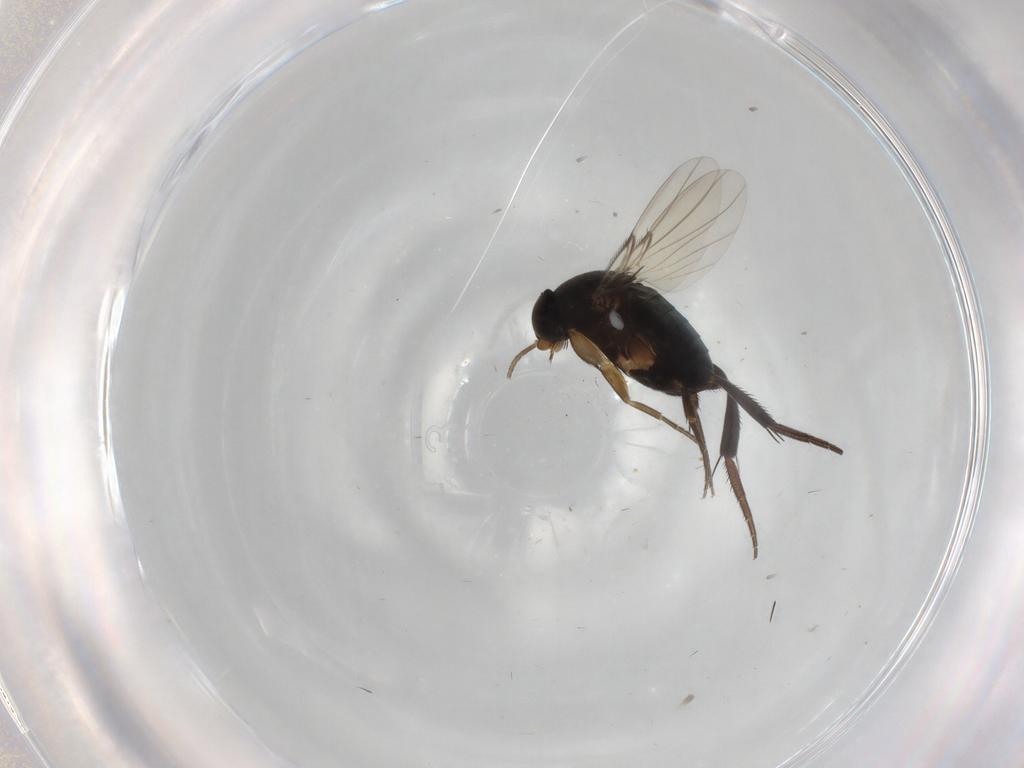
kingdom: Animalia
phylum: Arthropoda
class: Insecta
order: Diptera
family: Phoridae
